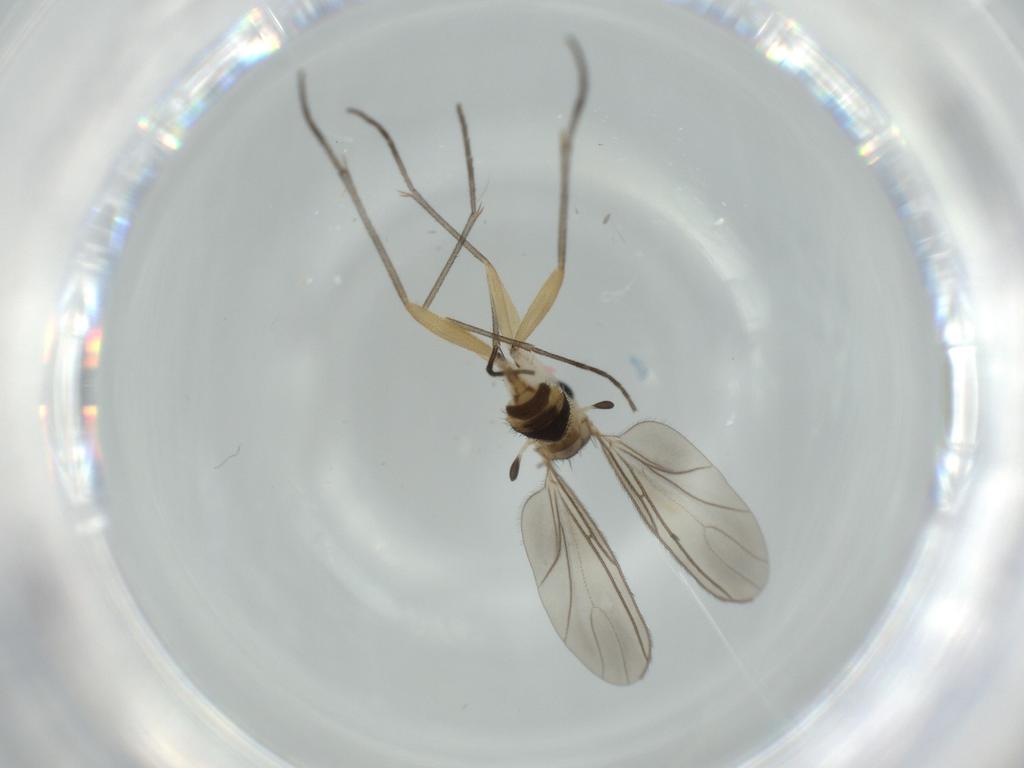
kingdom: Animalia
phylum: Arthropoda
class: Insecta
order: Diptera
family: Sciaridae
